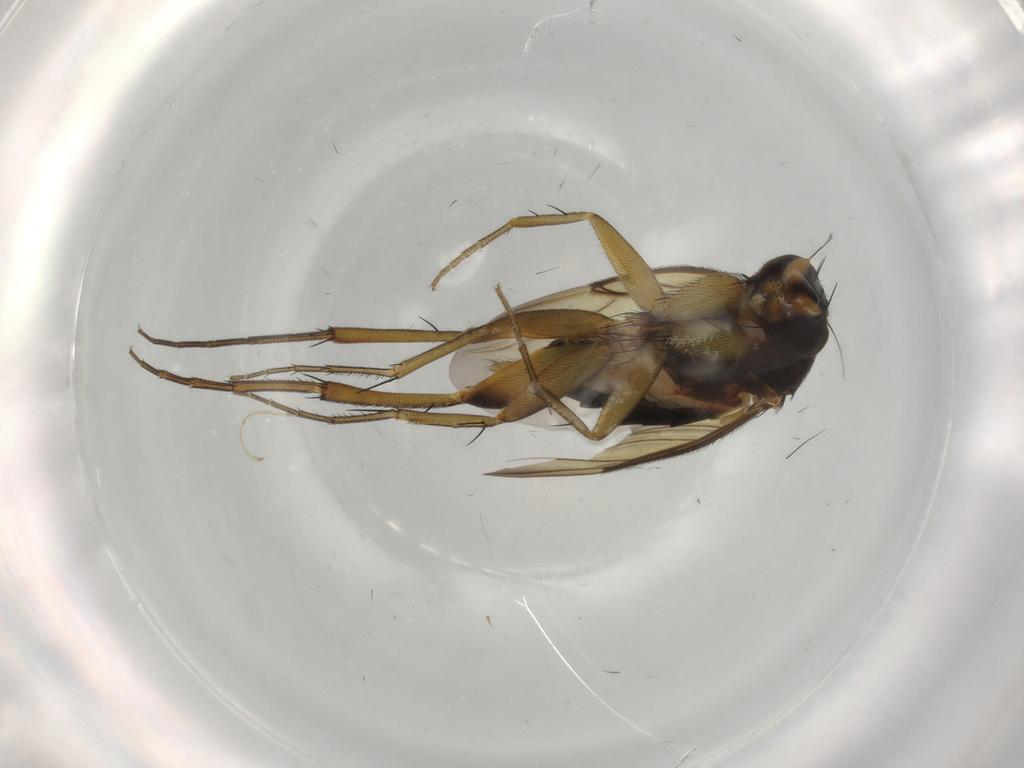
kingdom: Animalia
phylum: Arthropoda
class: Insecta
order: Diptera
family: Phoridae
